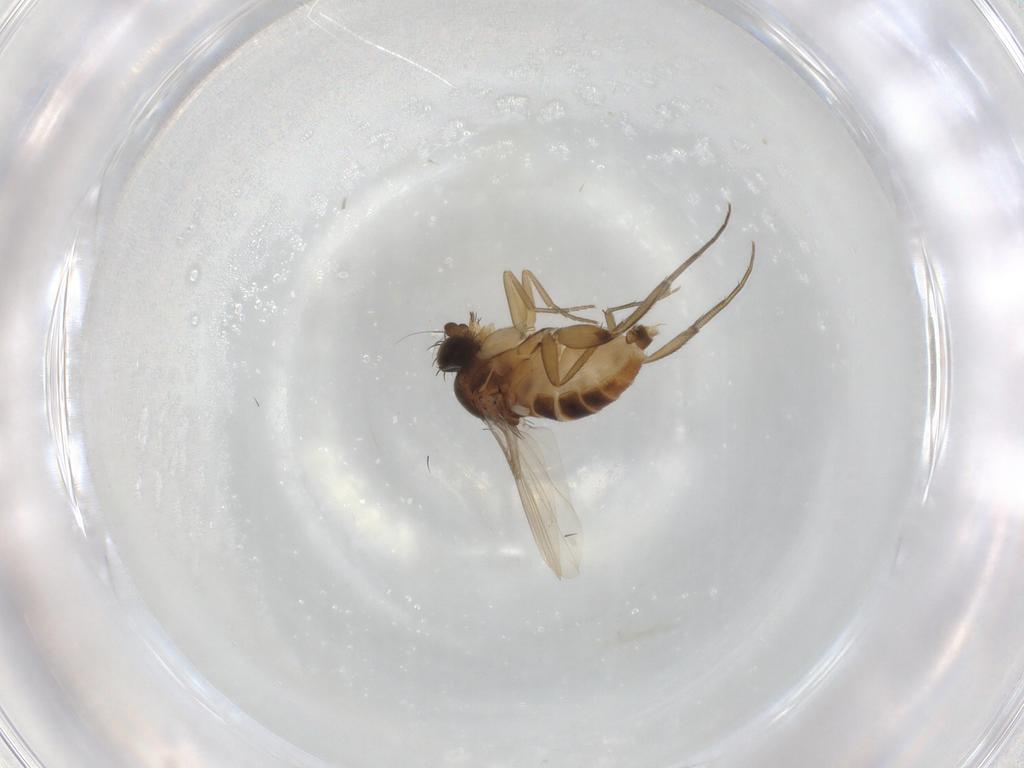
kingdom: Animalia
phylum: Arthropoda
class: Insecta
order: Diptera
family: Phoridae
